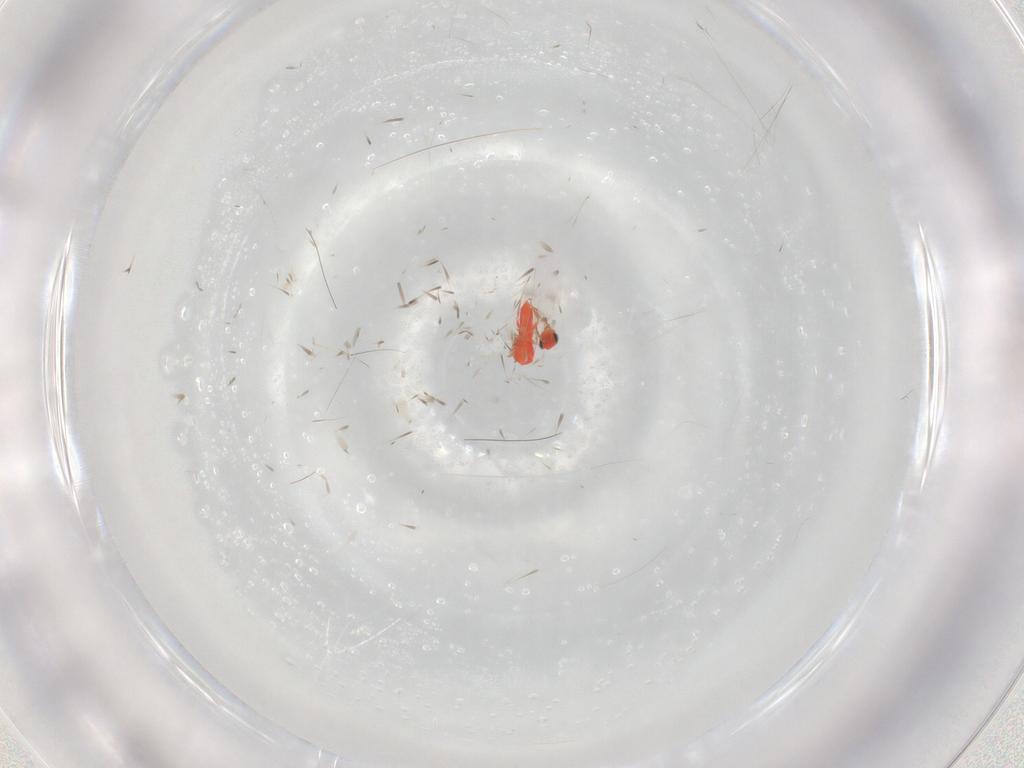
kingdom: Animalia
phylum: Arthropoda
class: Insecta
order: Hymenoptera
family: Trichogrammatidae
